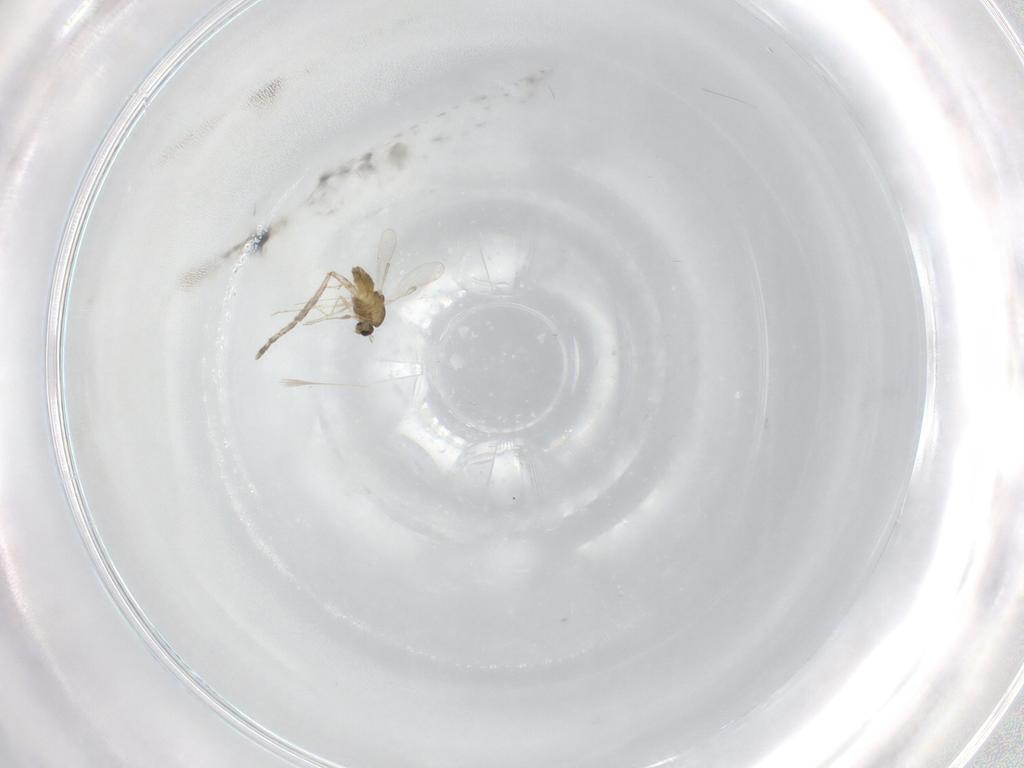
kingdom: Animalia
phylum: Arthropoda
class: Insecta
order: Diptera
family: Chironomidae
